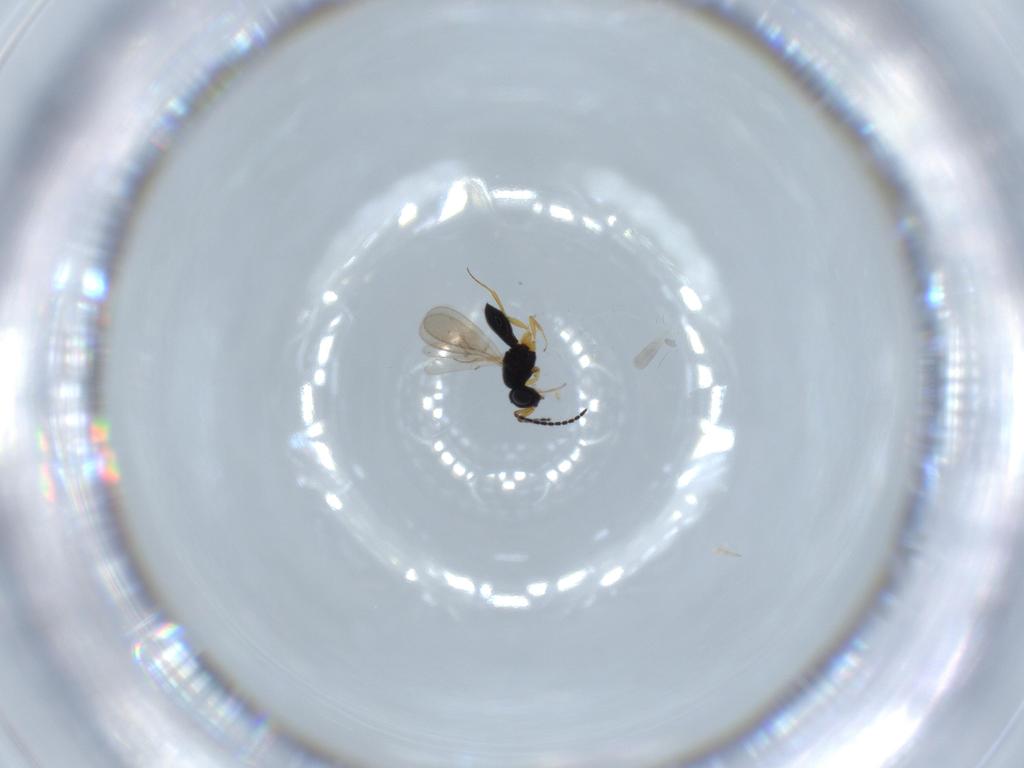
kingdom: Animalia
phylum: Arthropoda
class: Insecta
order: Hymenoptera
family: Scelionidae
